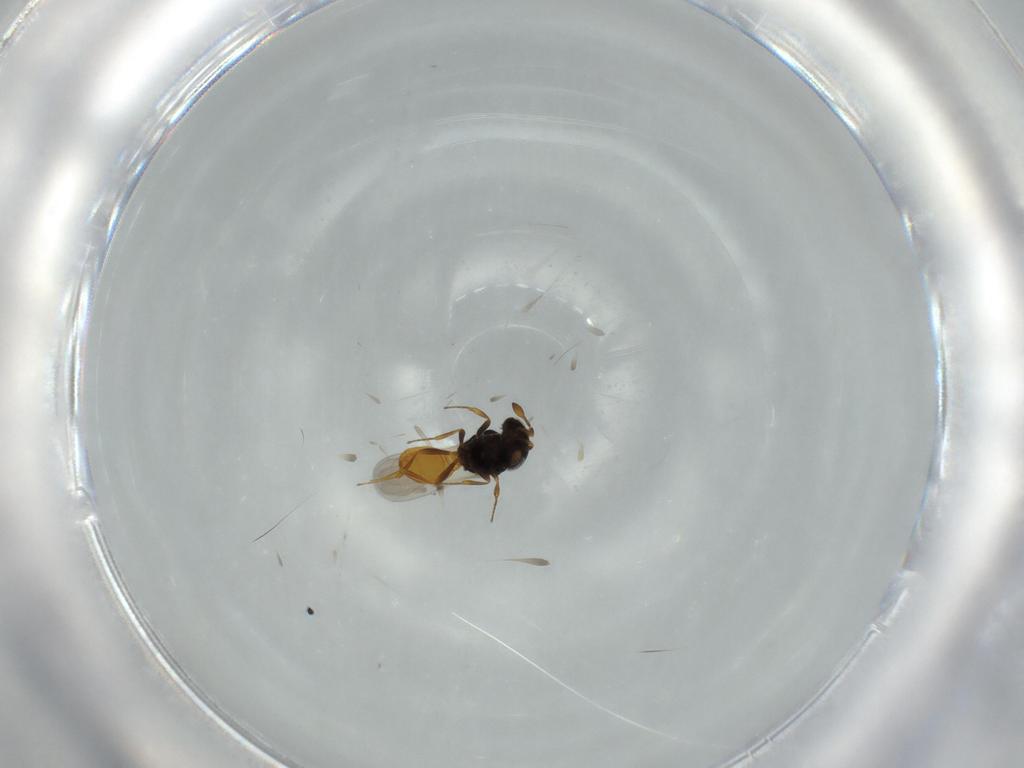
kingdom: Animalia
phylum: Arthropoda
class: Insecta
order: Hymenoptera
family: Scelionidae
